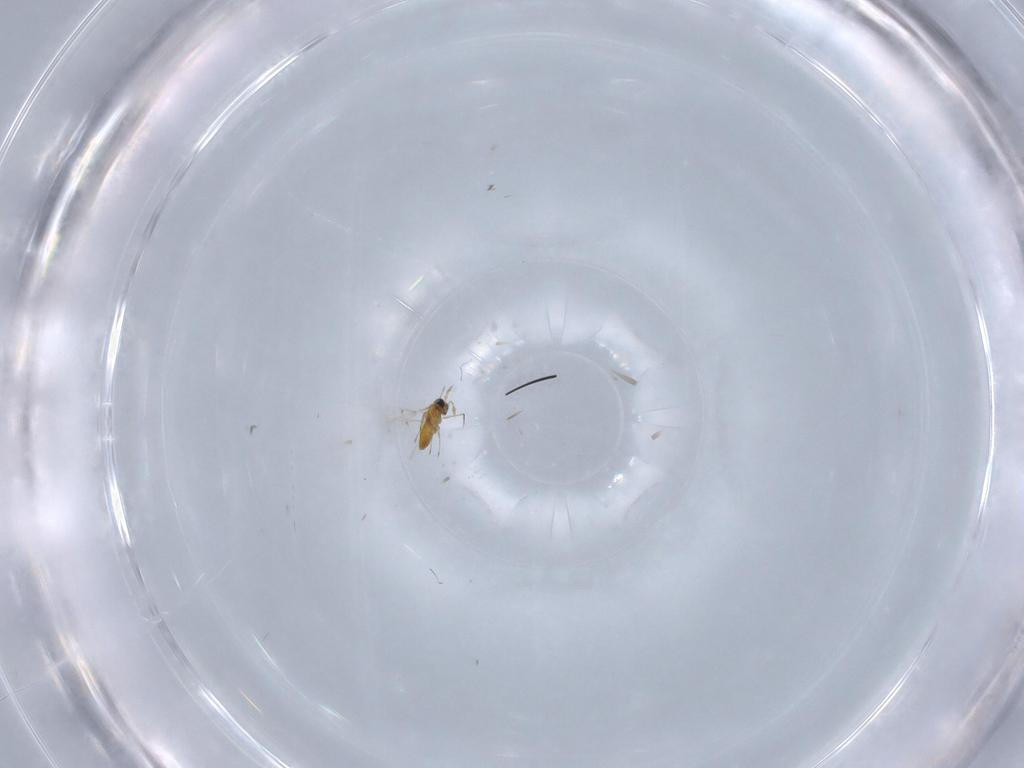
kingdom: Animalia
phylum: Arthropoda
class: Insecta
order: Hymenoptera
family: Trichogrammatidae
